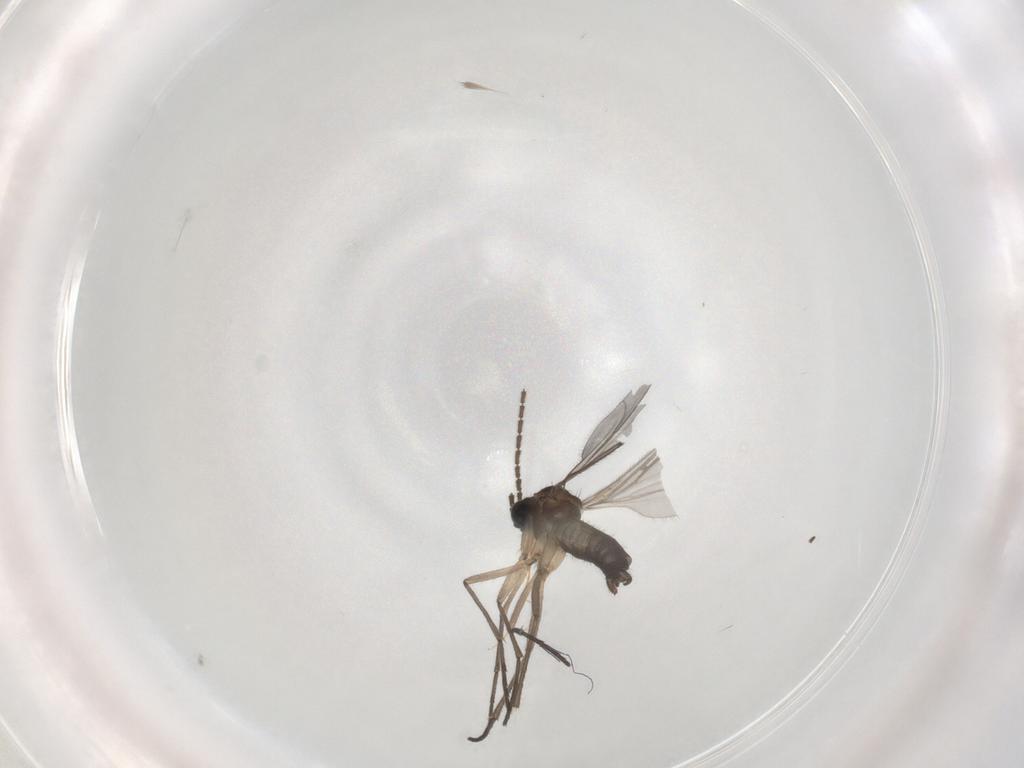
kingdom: Animalia
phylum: Arthropoda
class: Insecta
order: Diptera
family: Sciaridae
